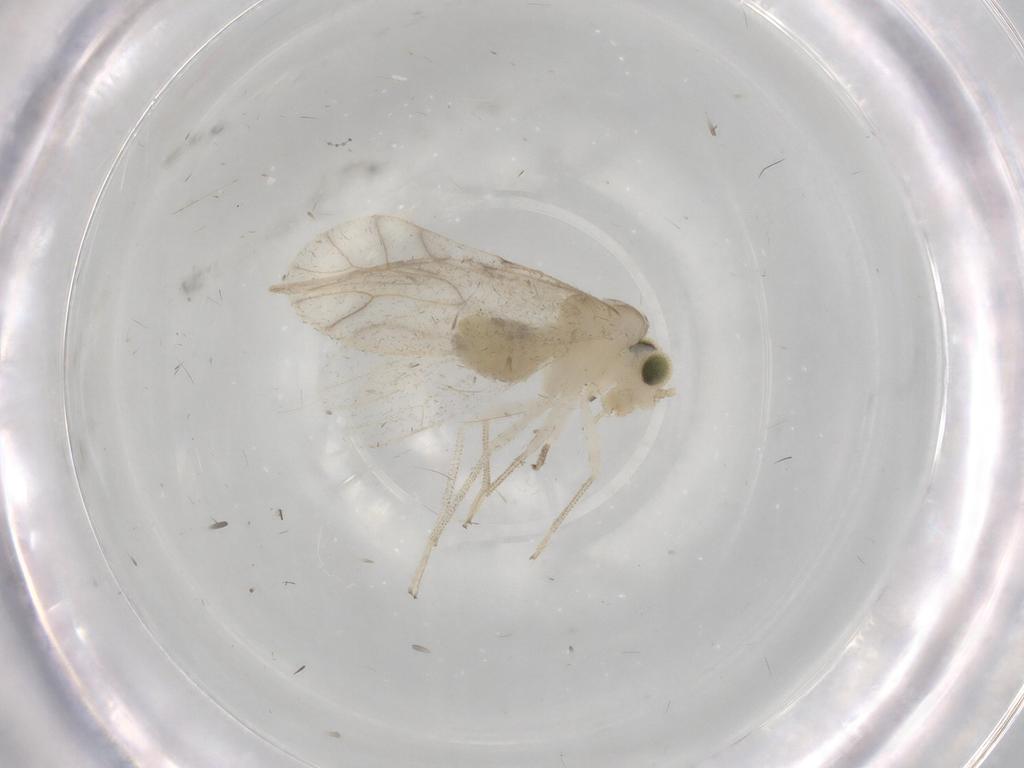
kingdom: Animalia
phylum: Arthropoda
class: Insecta
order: Psocodea
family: Caeciliusidae
